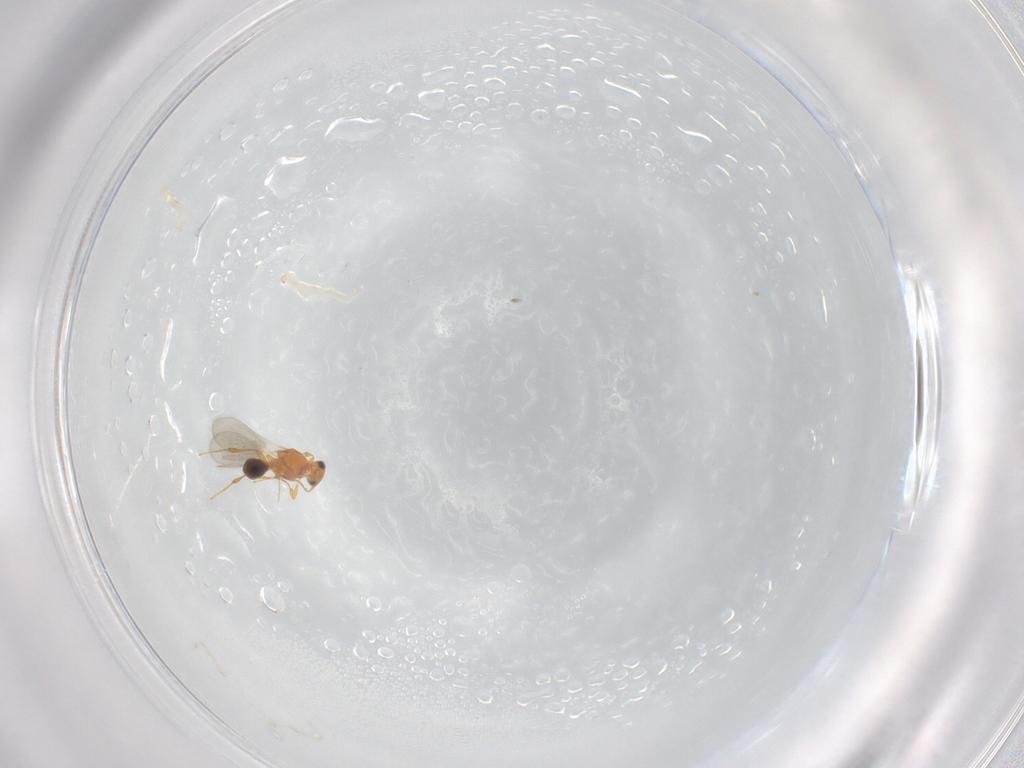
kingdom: Animalia
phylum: Arthropoda
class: Insecta
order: Hymenoptera
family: Platygastridae
